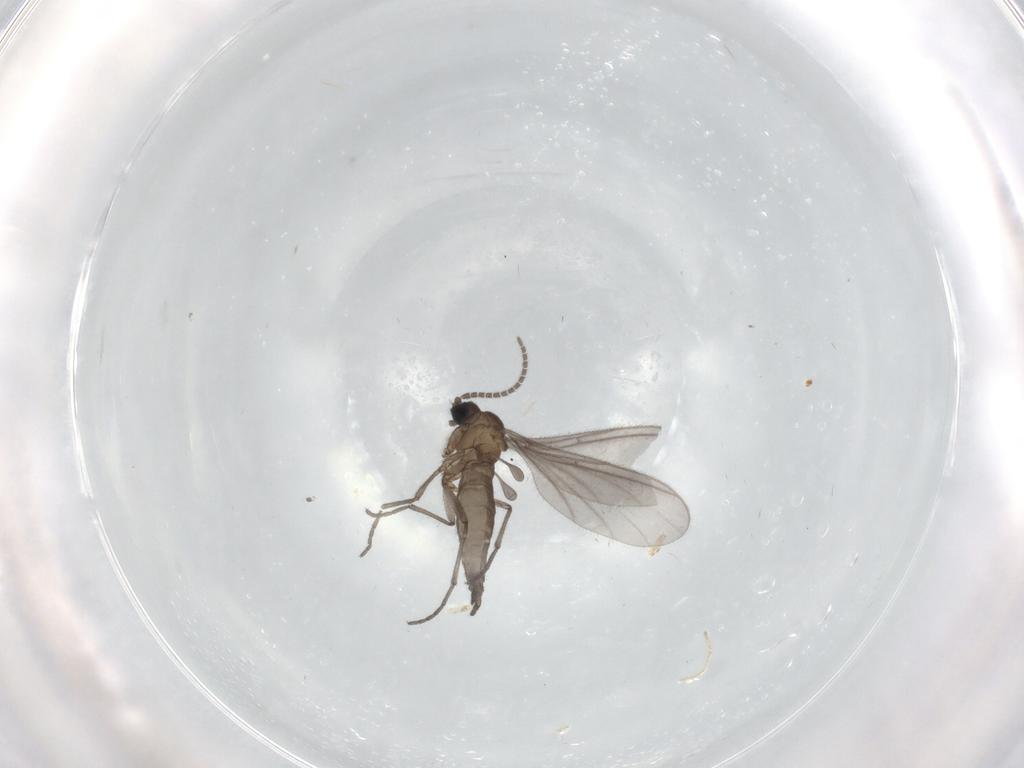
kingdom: Animalia
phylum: Arthropoda
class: Insecta
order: Diptera
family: Sciaridae
